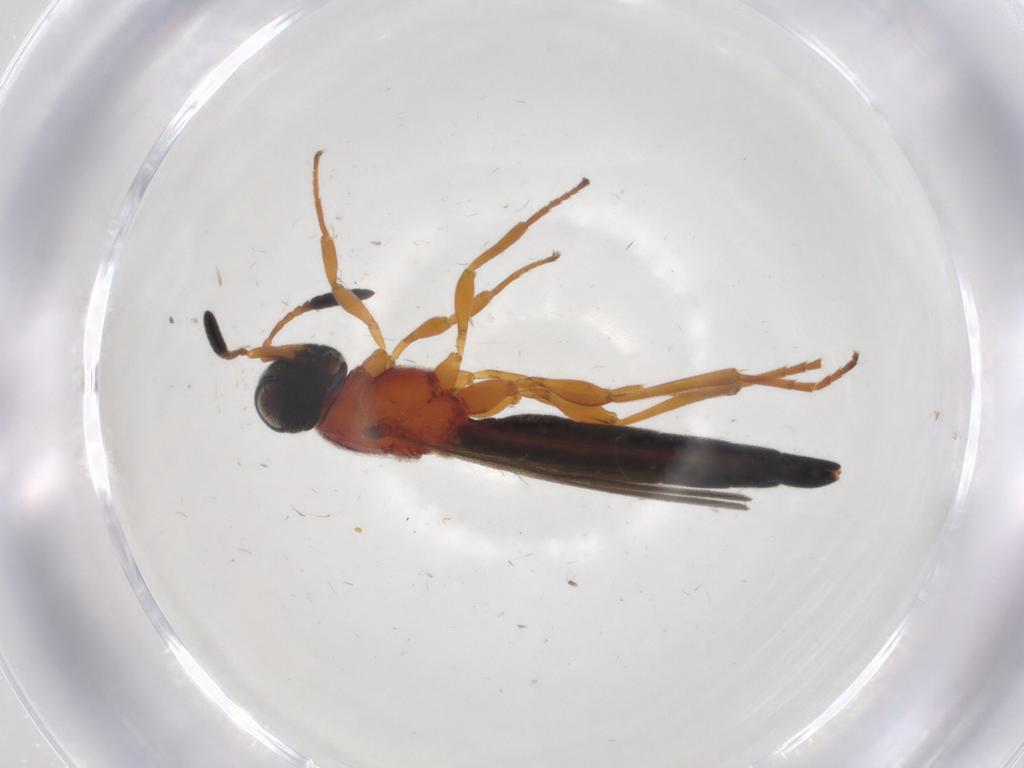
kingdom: Animalia
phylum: Arthropoda
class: Insecta
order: Hymenoptera
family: Scelionidae
